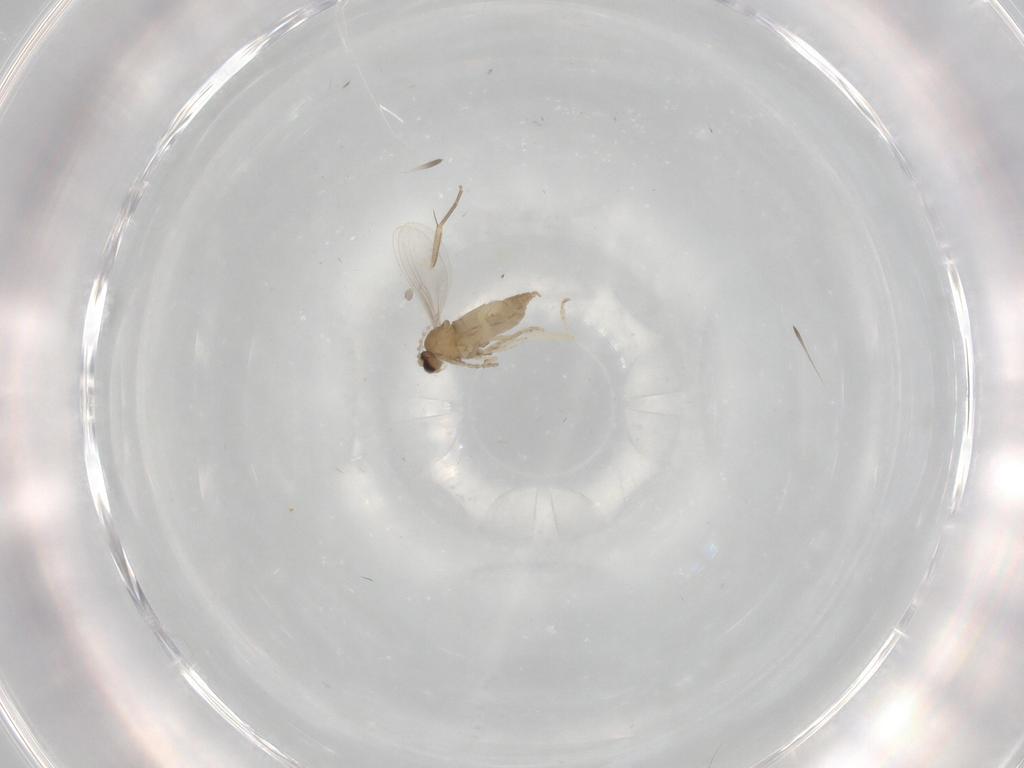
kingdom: Animalia
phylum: Arthropoda
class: Insecta
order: Diptera
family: Cecidomyiidae
